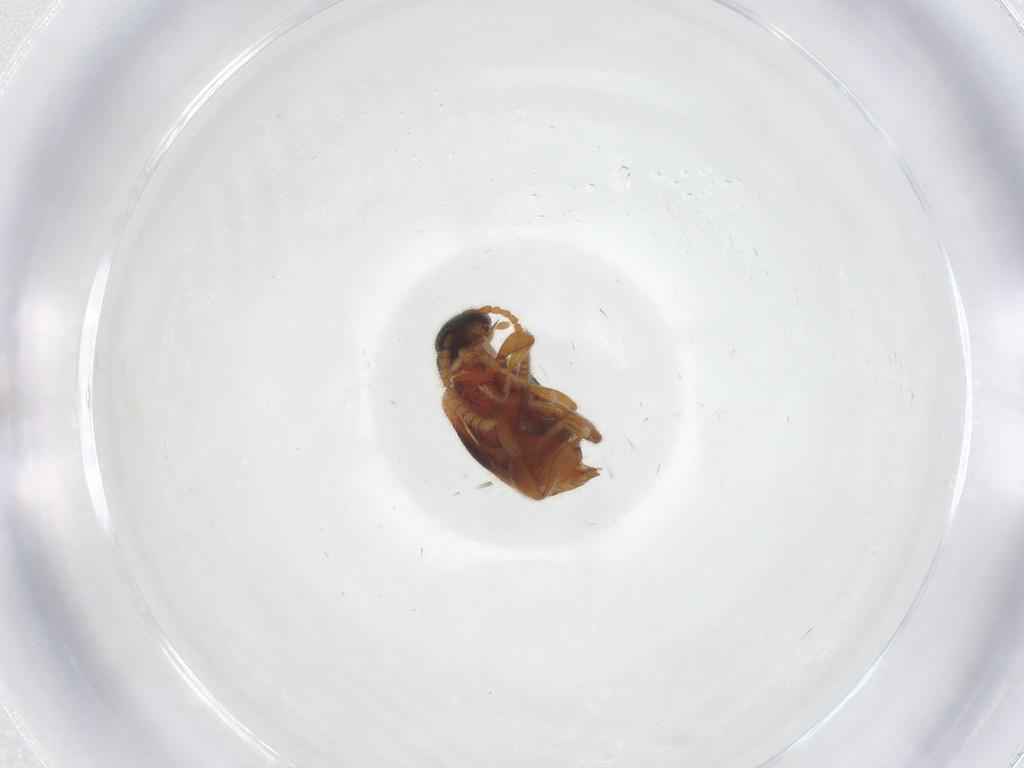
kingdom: Animalia
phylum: Arthropoda
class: Insecta
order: Coleoptera
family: Aderidae
